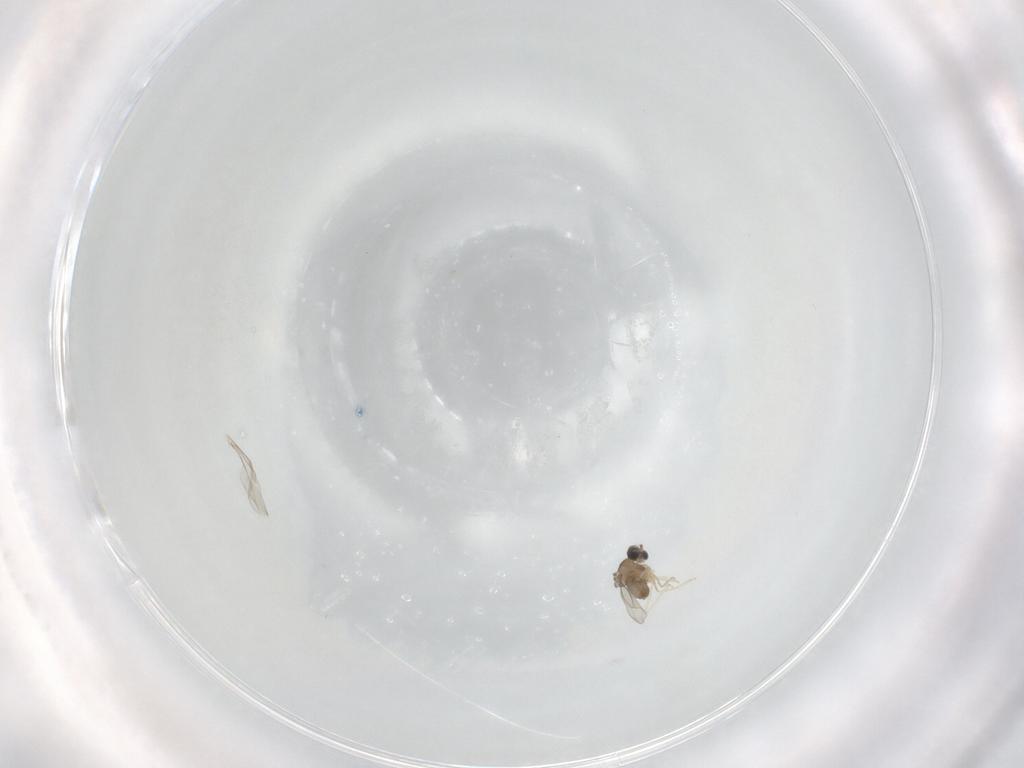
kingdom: Animalia
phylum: Arthropoda
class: Insecta
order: Diptera
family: Cecidomyiidae
